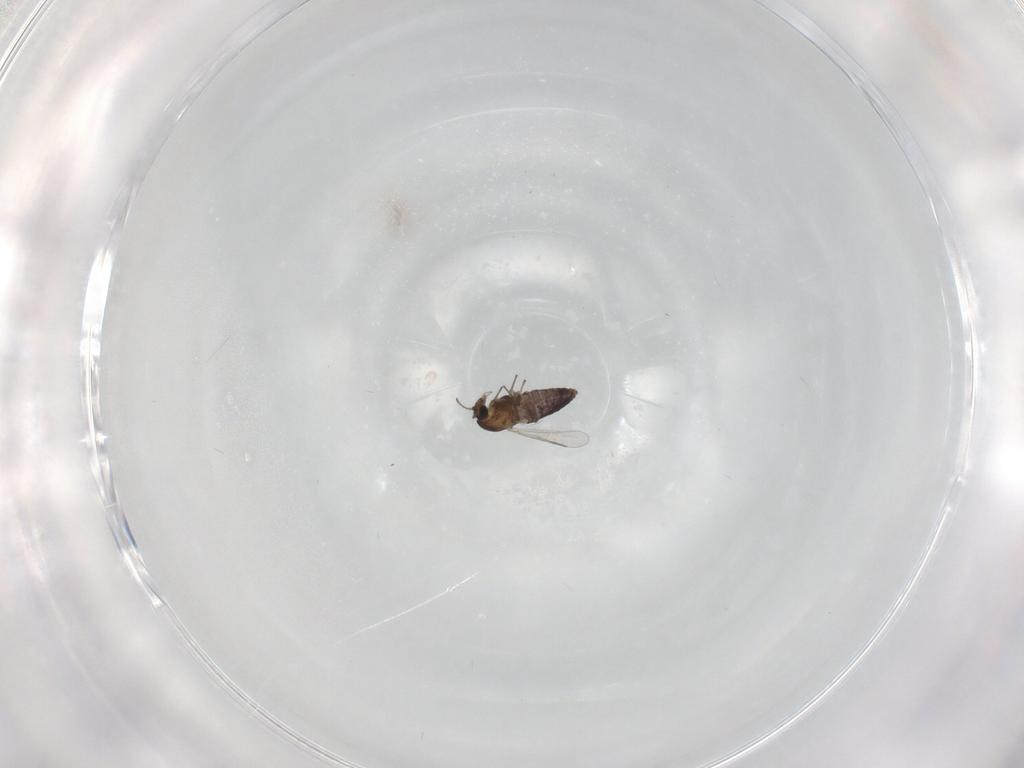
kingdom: Animalia
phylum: Arthropoda
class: Insecta
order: Diptera
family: Chironomidae
